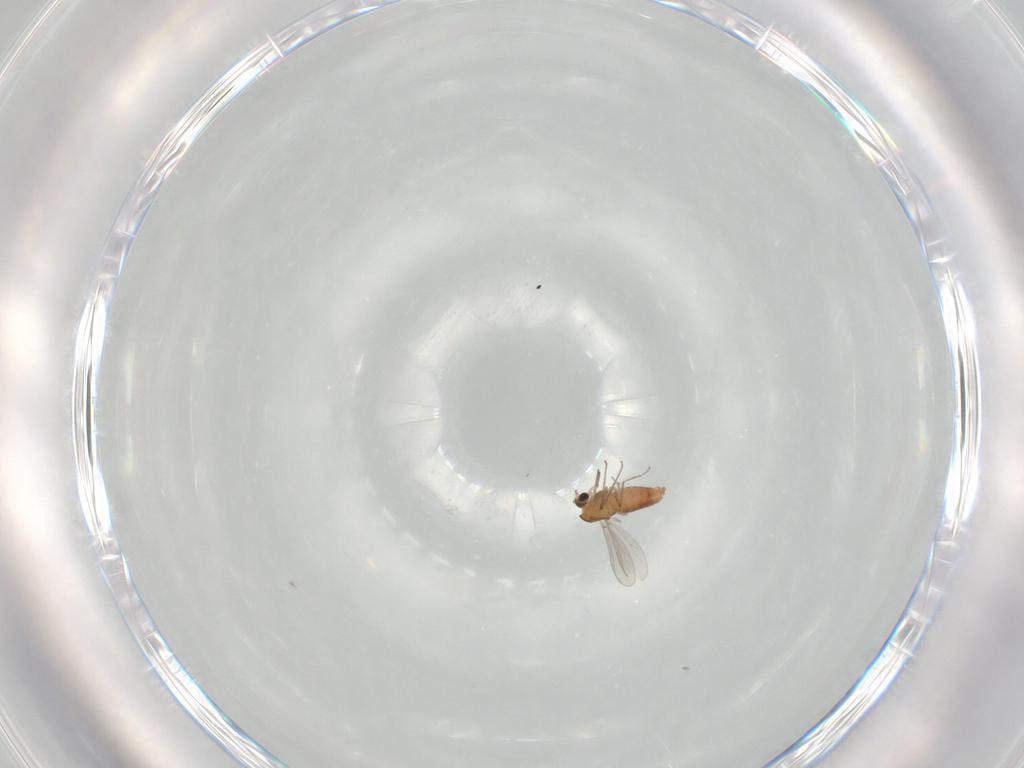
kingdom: Animalia
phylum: Arthropoda
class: Insecta
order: Diptera
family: Chironomidae
